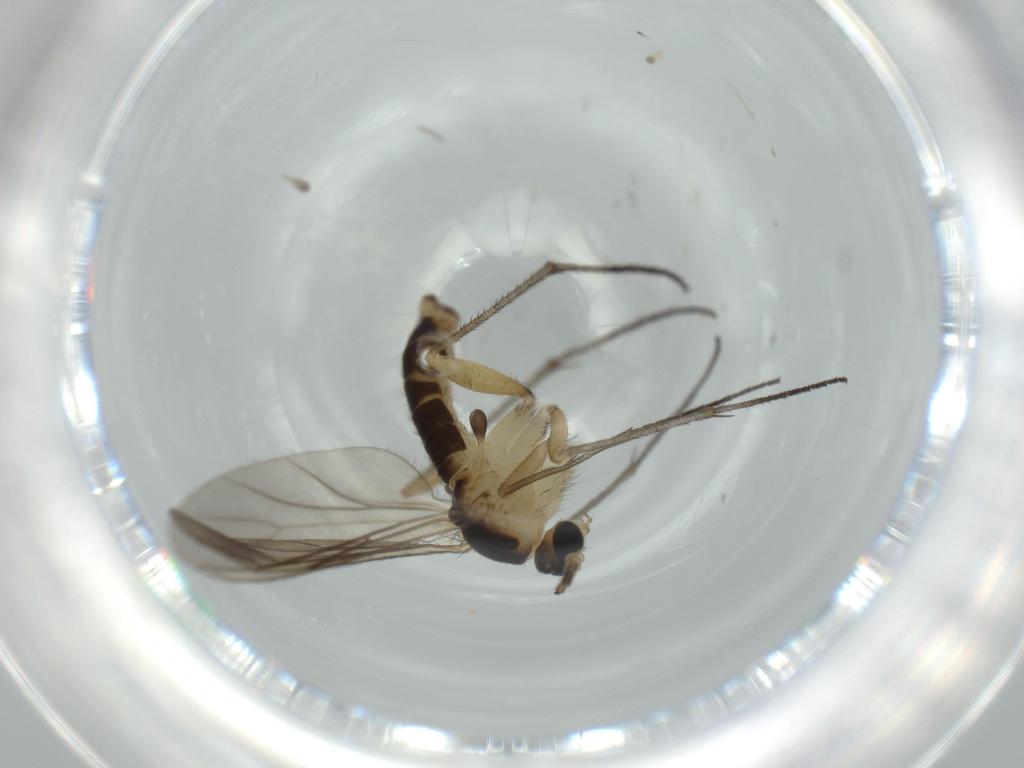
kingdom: Animalia
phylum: Arthropoda
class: Insecta
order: Diptera
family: Sciaridae
